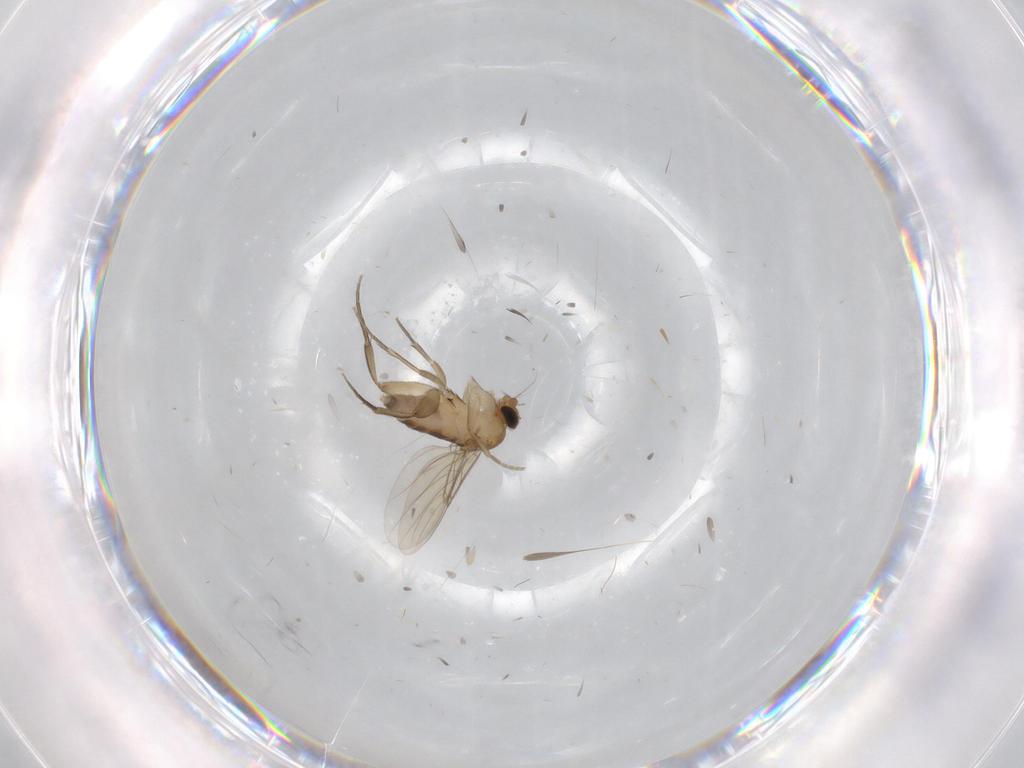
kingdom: Animalia
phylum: Arthropoda
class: Insecta
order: Diptera
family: Phoridae
